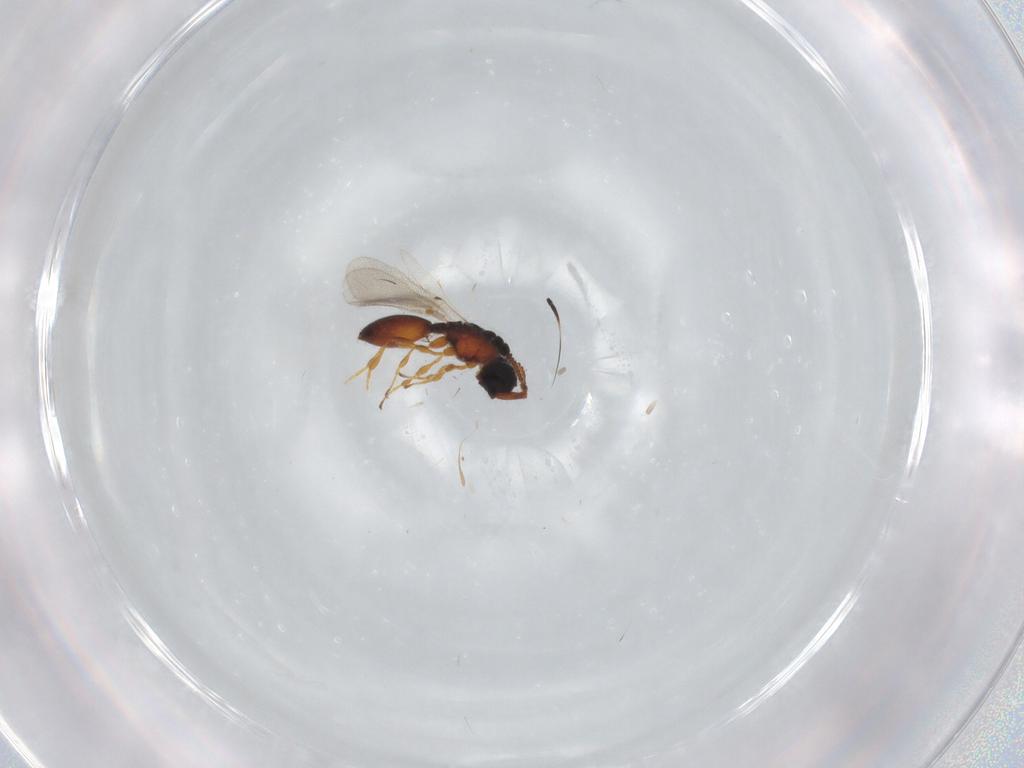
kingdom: Animalia
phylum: Arthropoda
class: Insecta
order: Hymenoptera
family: Diapriidae
